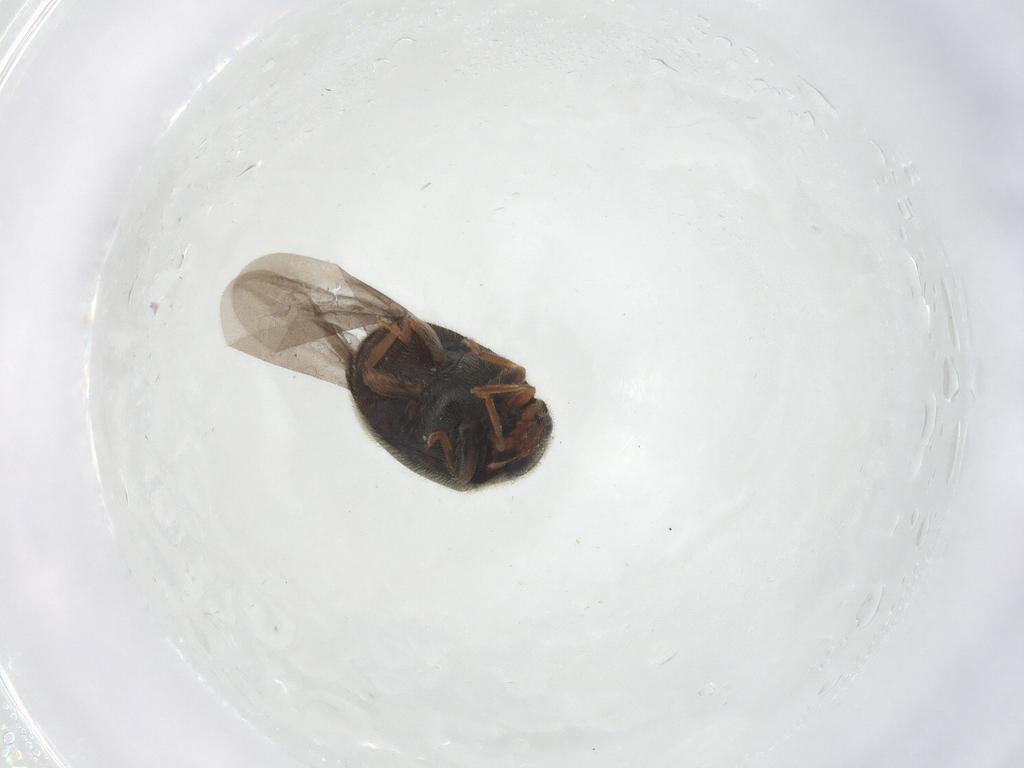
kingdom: Animalia
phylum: Arthropoda
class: Insecta
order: Coleoptera
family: Coccinellidae
